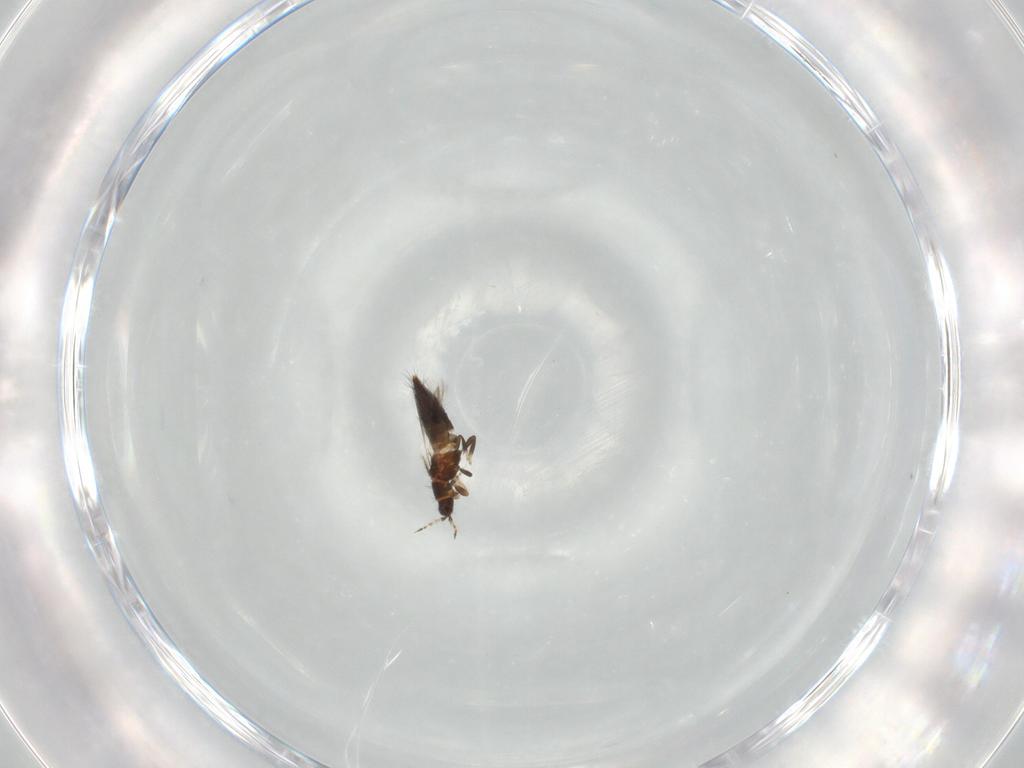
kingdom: Animalia
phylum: Arthropoda
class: Insecta
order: Thysanoptera
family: Thripidae
